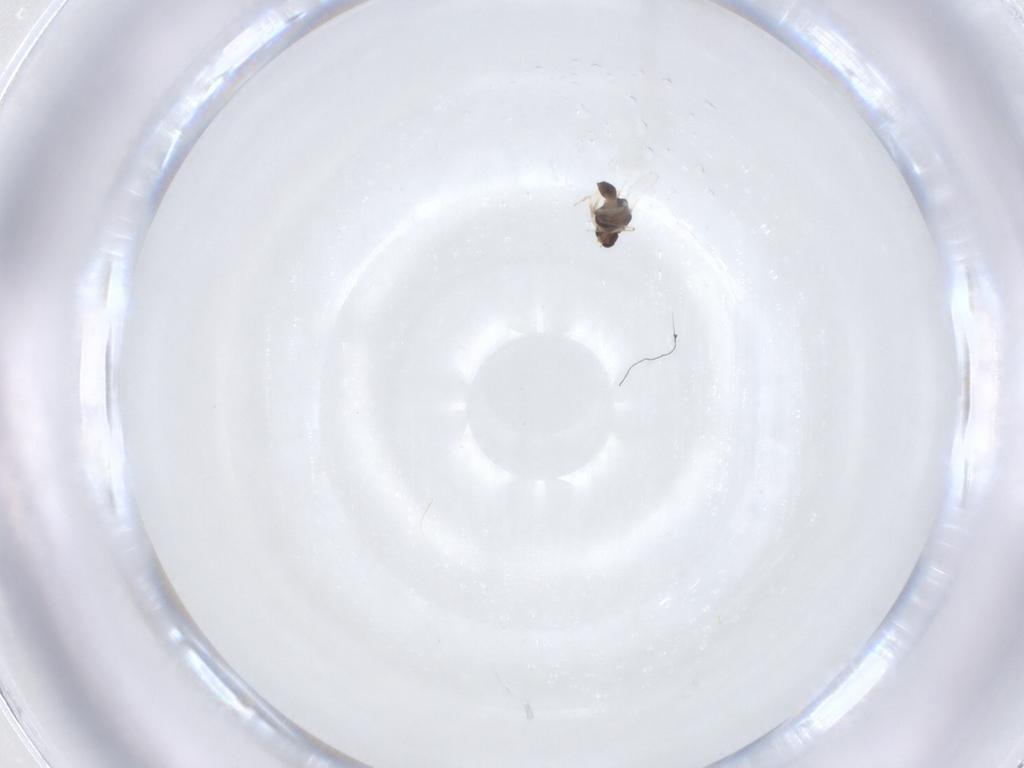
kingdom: Animalia
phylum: Arthropoda
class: Insecta
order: Diptera
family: Chironomidae
